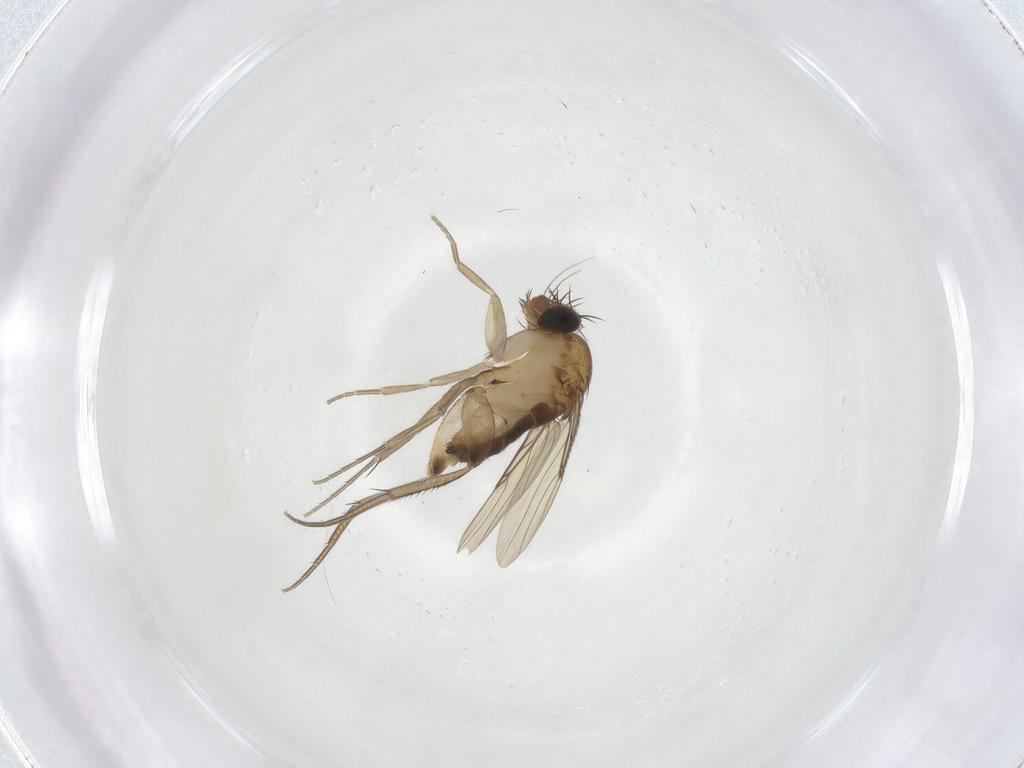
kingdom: Animalia
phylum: Arthropoda
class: Insecta
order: Diptera
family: Phoridae
